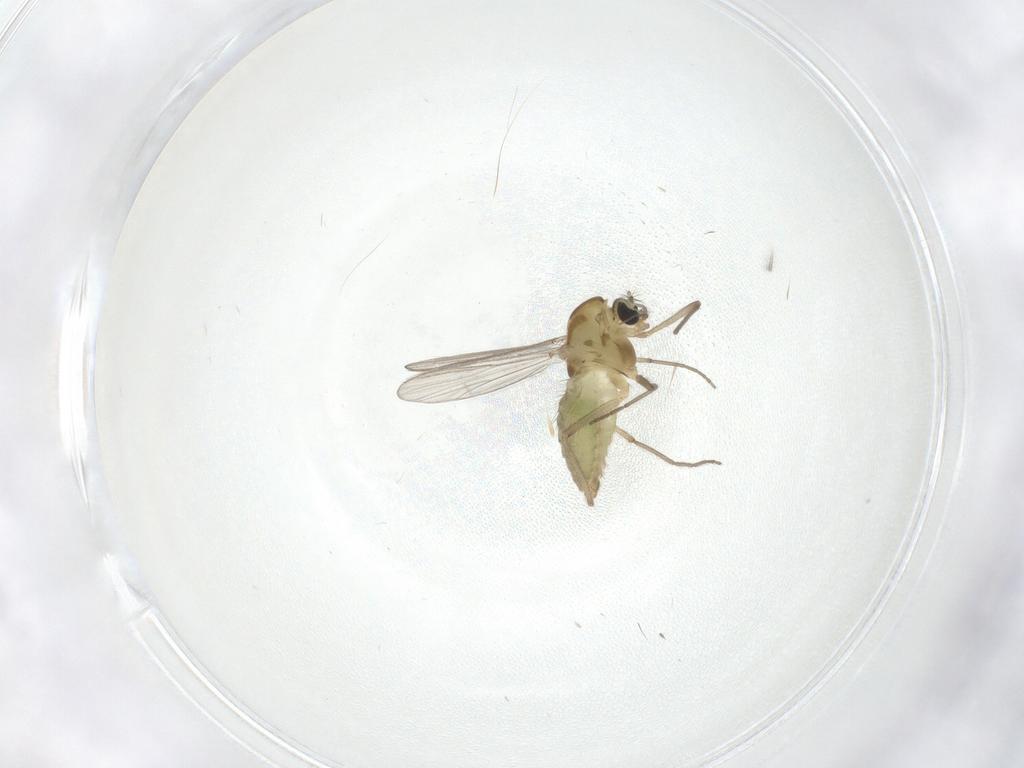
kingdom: Animalia
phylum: Arthropoda
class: Insecta
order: Diptera
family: Chironomidae
